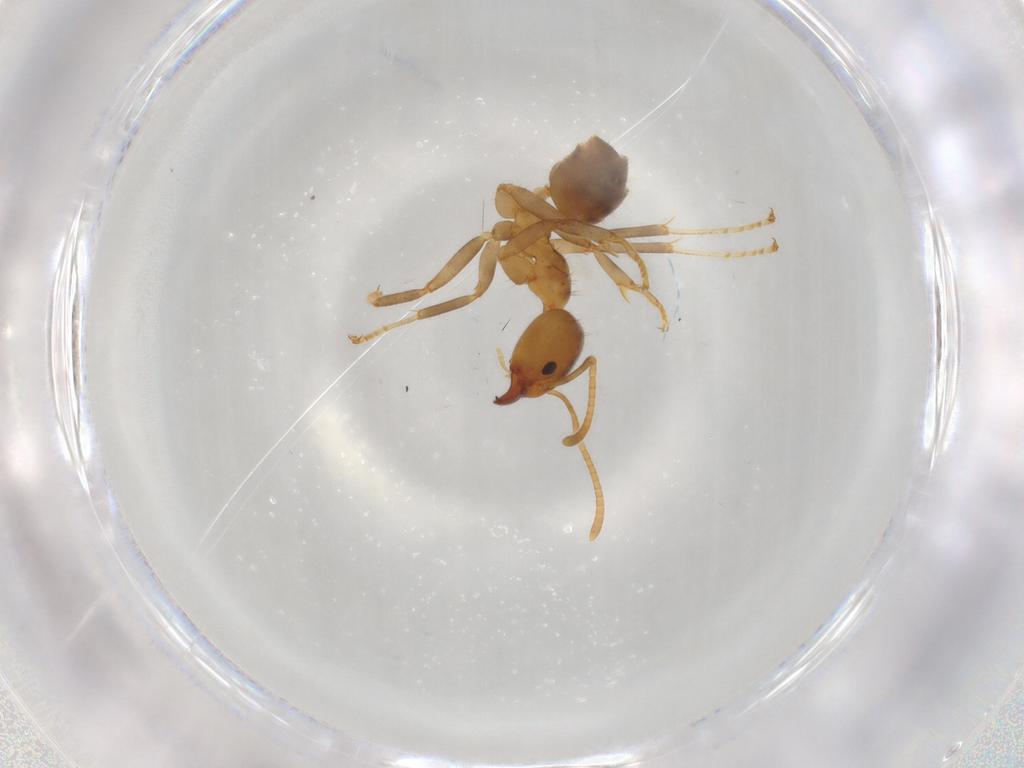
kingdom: Animalia
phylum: Arthropoda
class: Insecta
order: Hymenoptera
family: Formicidae
